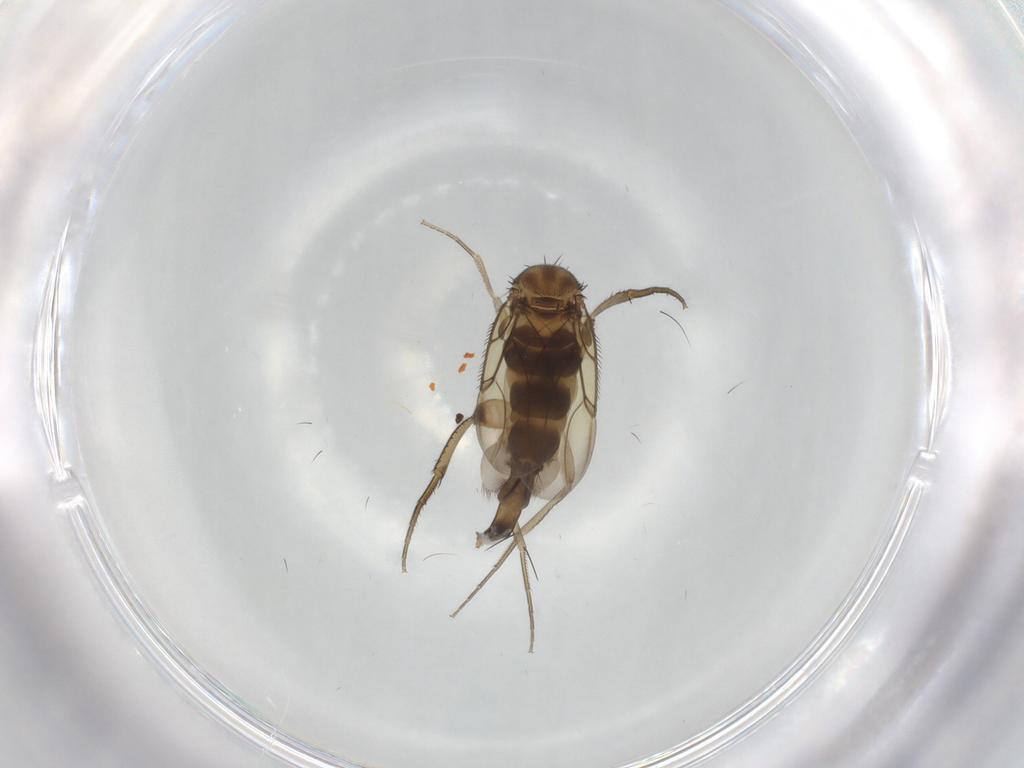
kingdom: Animalia
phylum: Arthropoda
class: Insecta
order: Diptera
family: Phoridae
